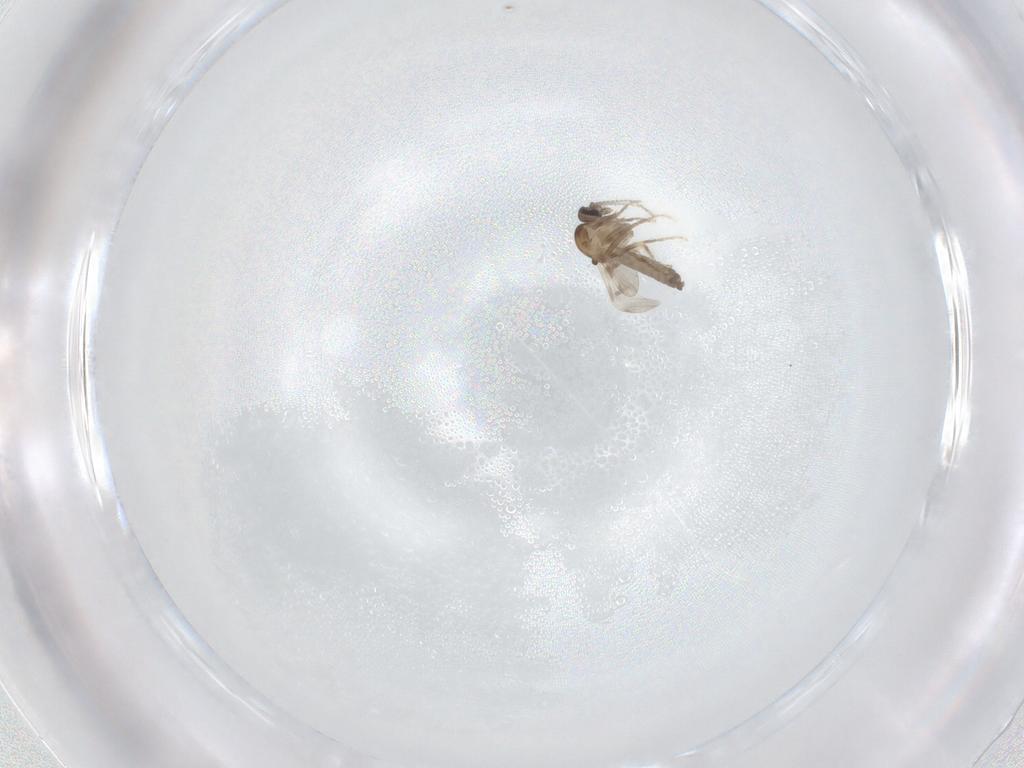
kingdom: Animalia
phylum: Arthropoda
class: Insecta
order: Diptera
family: Ceratopogonidae
